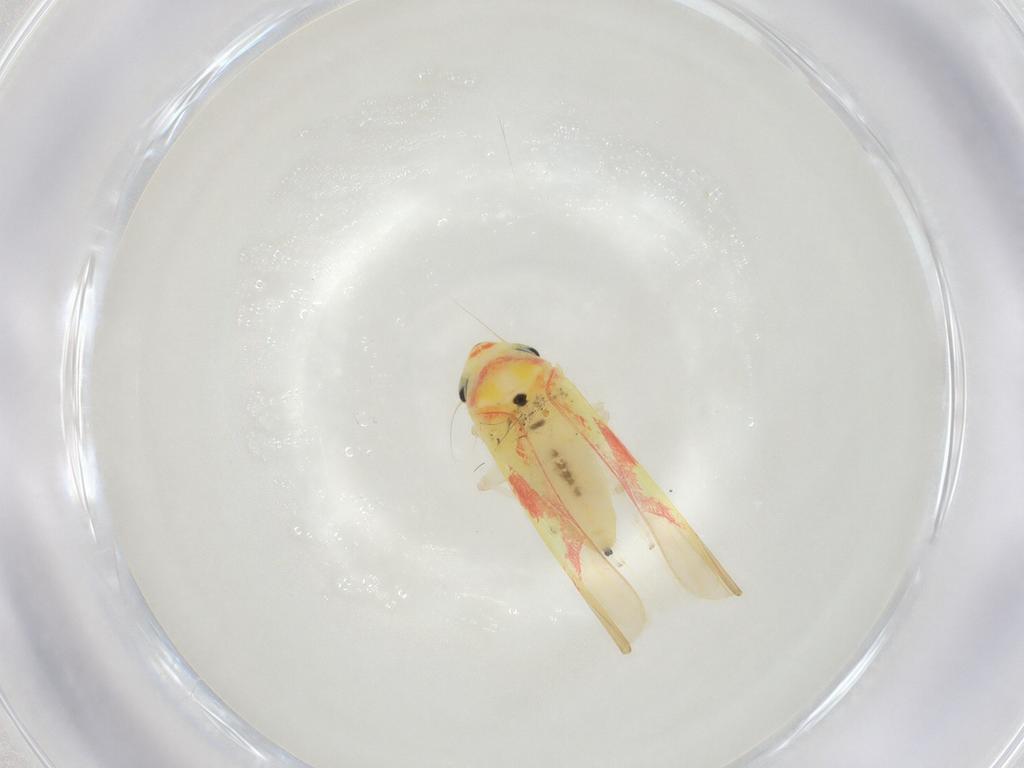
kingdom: Animalia
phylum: Arthropoda
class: Insecta
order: Hemiptera
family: Cicadellidae
